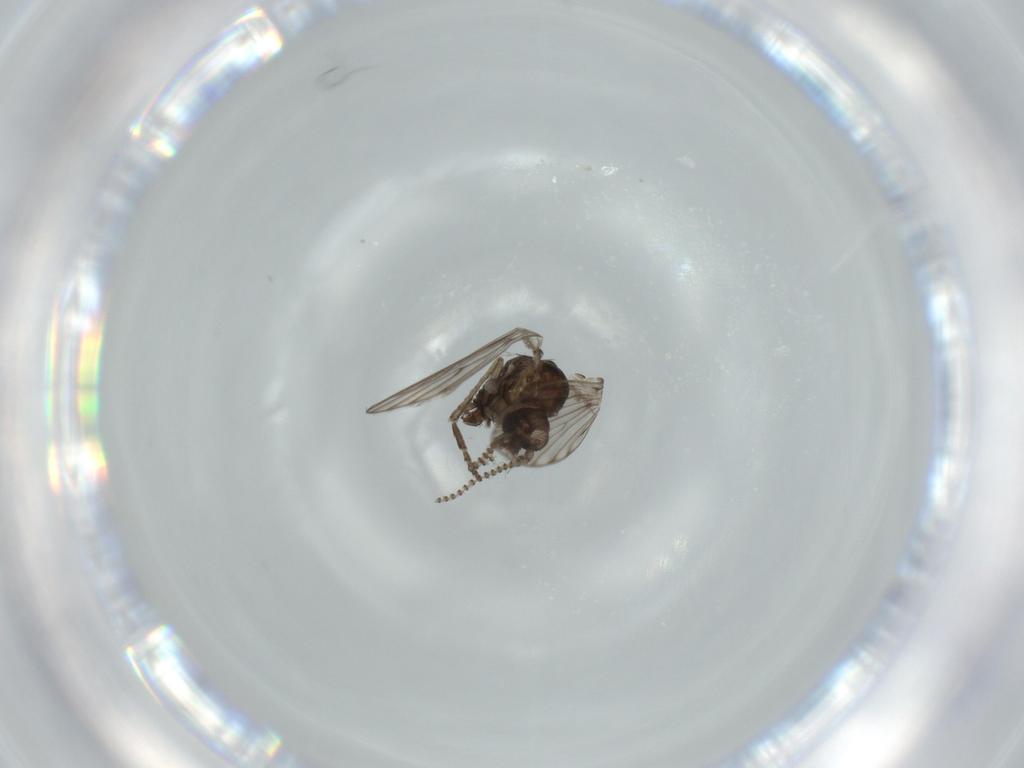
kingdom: Animalia
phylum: Arthropoda
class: Insecta
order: Diptera
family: Psychodidae
